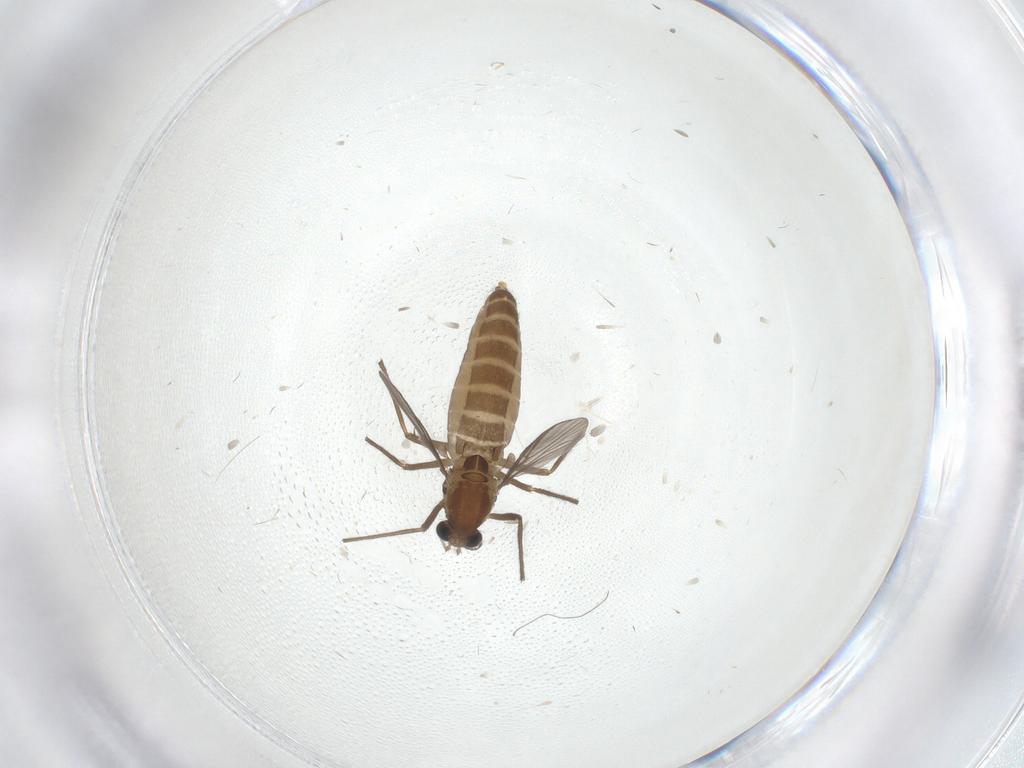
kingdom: Animalia
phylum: Arthropoda
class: Insecta
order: Diptera
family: Chironomidae
